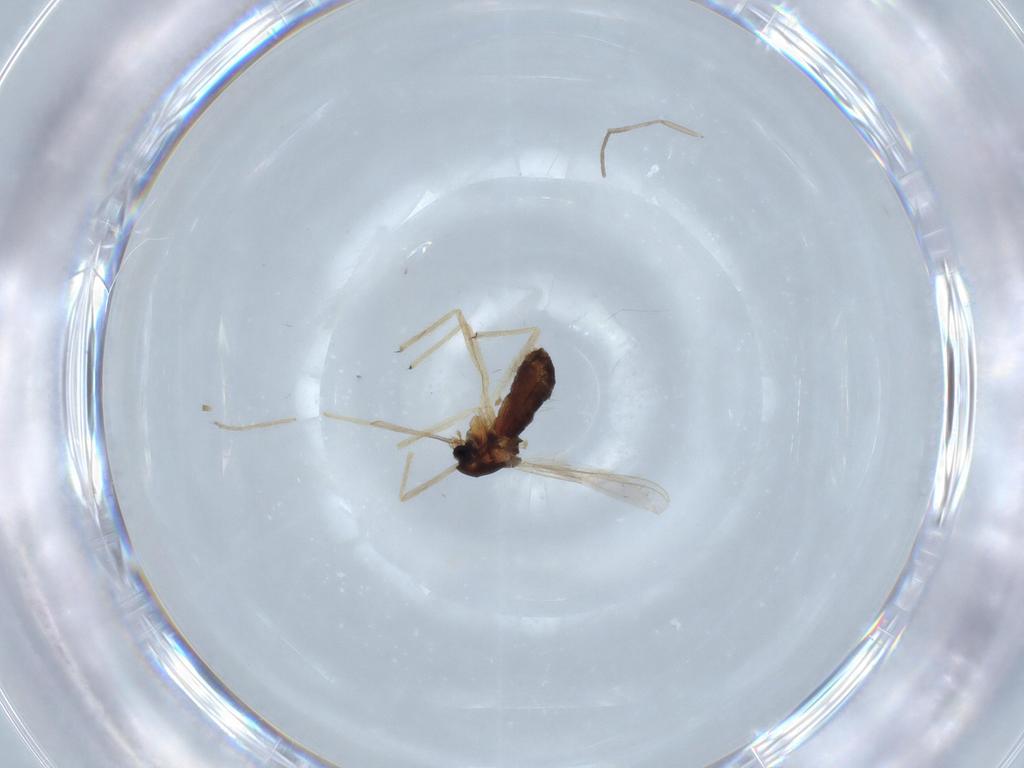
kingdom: Animalia
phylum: Arthropoda
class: Insecta
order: Diptera
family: Chironomidae
